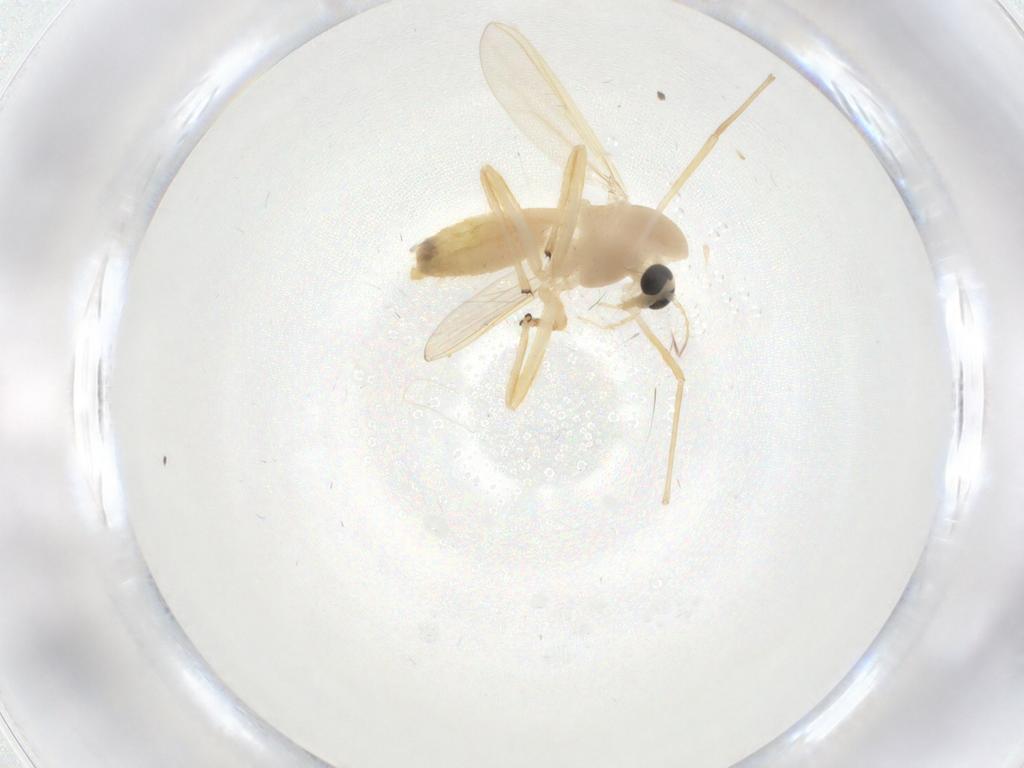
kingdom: Animalia
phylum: Arthropoda
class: Insecta
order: Diptera
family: Chironomidae
